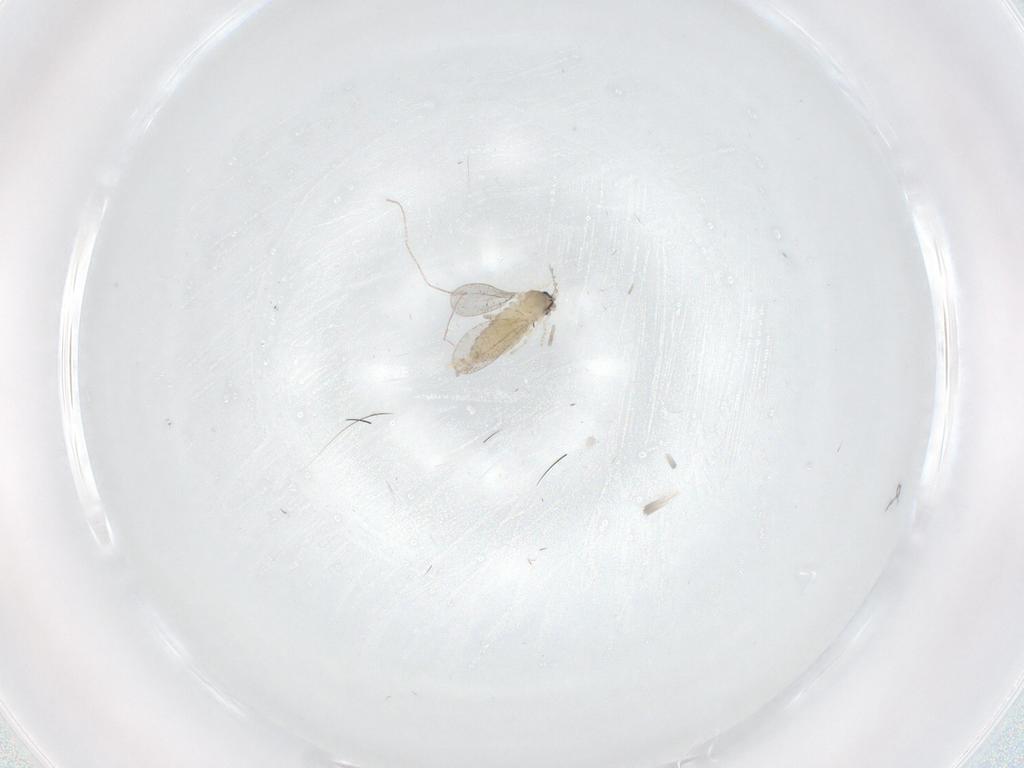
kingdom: Animalia
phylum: Arthropoda
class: Insecta
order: Diptera
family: Cecidomyiidae
